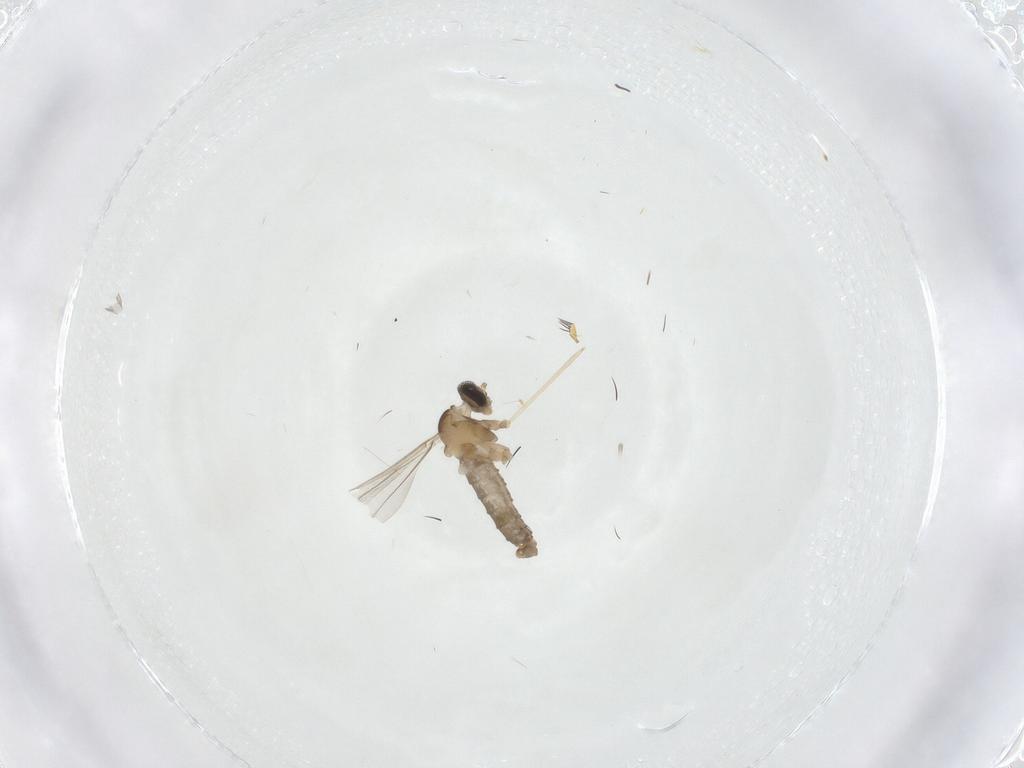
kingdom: Animalia
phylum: Arthropoda
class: Insecta
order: Diptera
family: Cecidomyiidae
